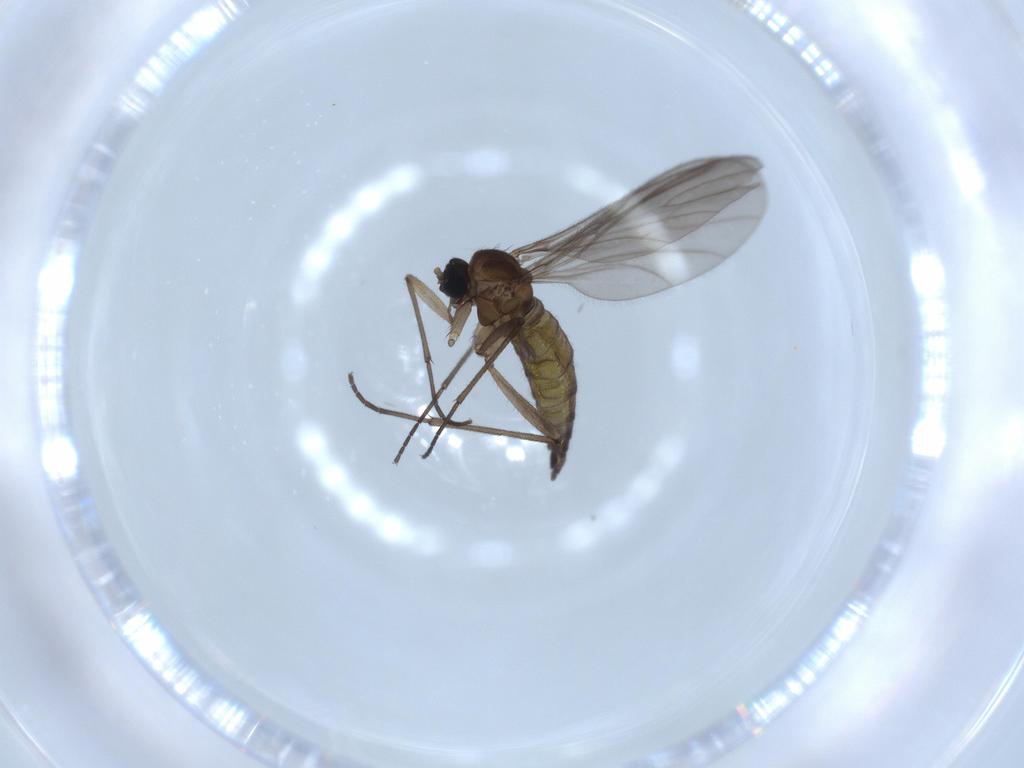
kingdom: Animalia
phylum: Arthropoda
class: Insecta
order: Diptera
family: Sciaridae
